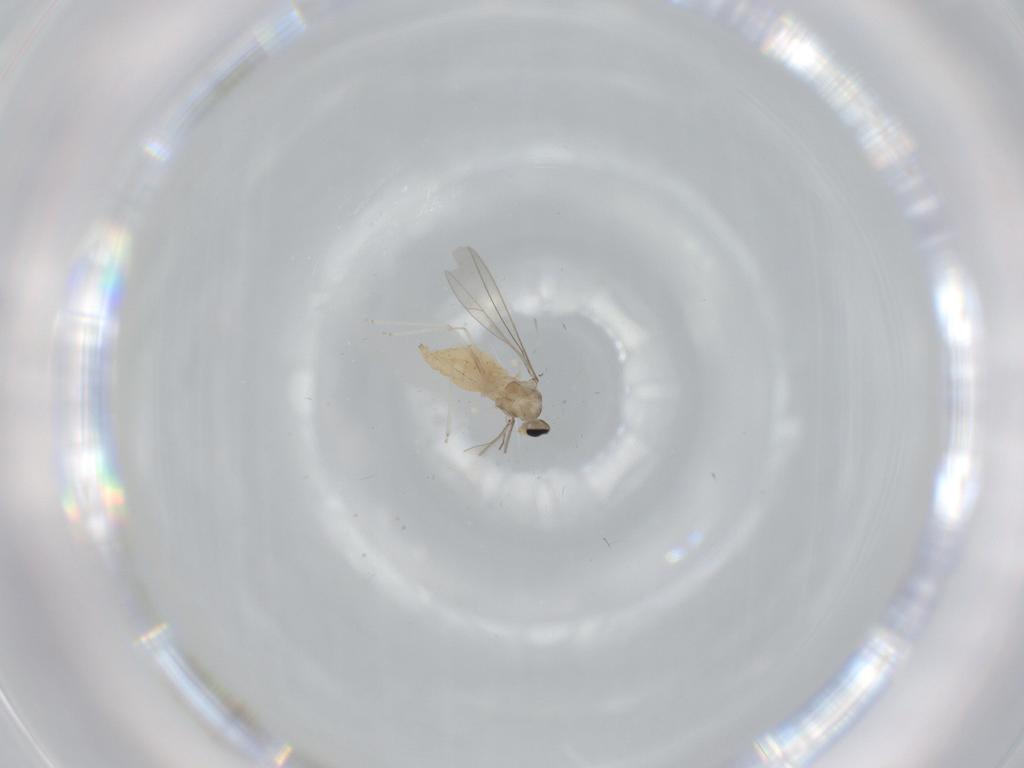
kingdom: Animalia
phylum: Arthropoda
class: Insecta
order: Diptera
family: Cecidomyiidae
